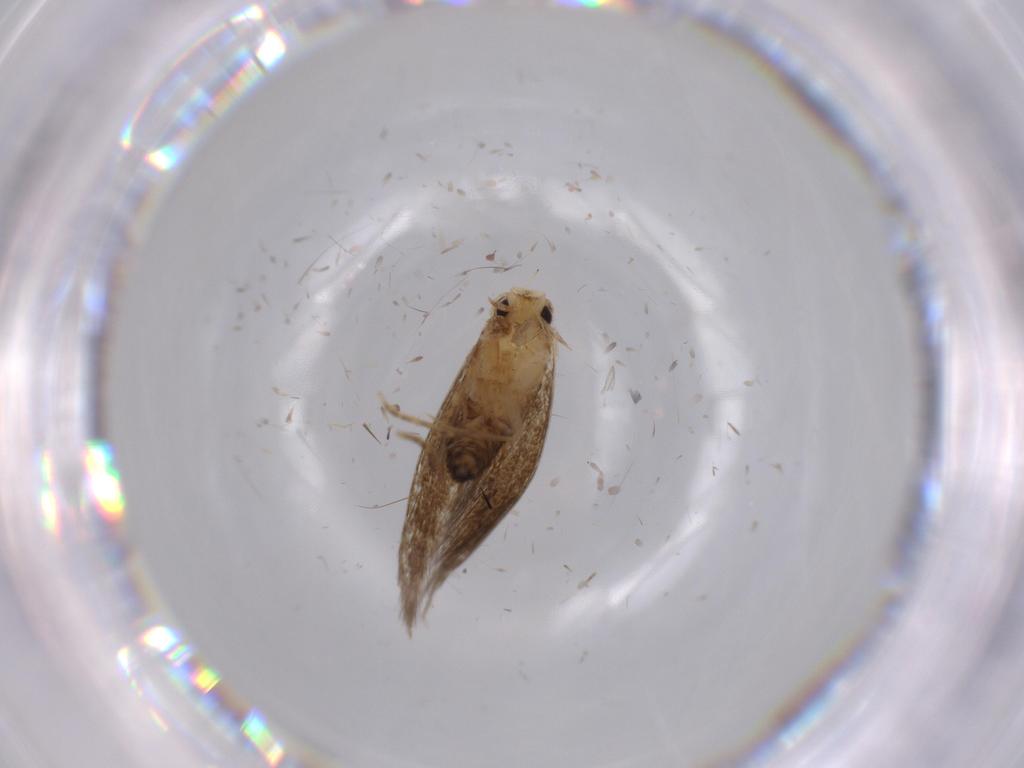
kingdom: Animalia
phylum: Arthropoda
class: Insecta
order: Lepidoptera
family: Tineidae
